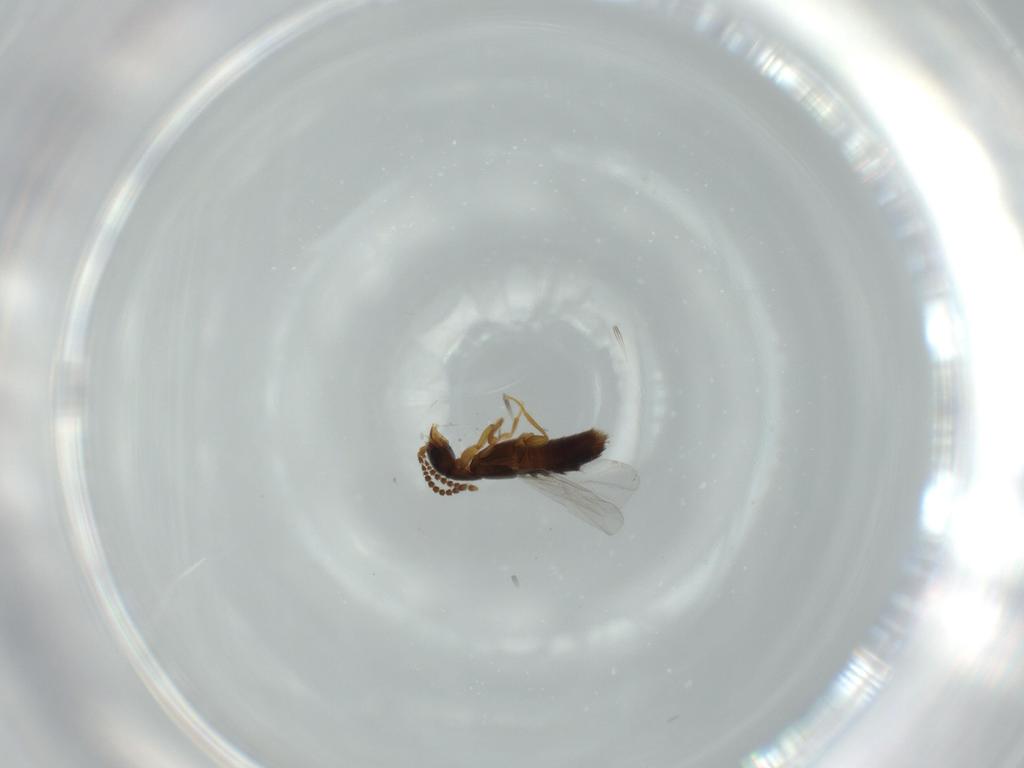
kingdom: Animalia
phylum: Arthropoda
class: Insecta
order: Coleoptera
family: Staphylinidae
